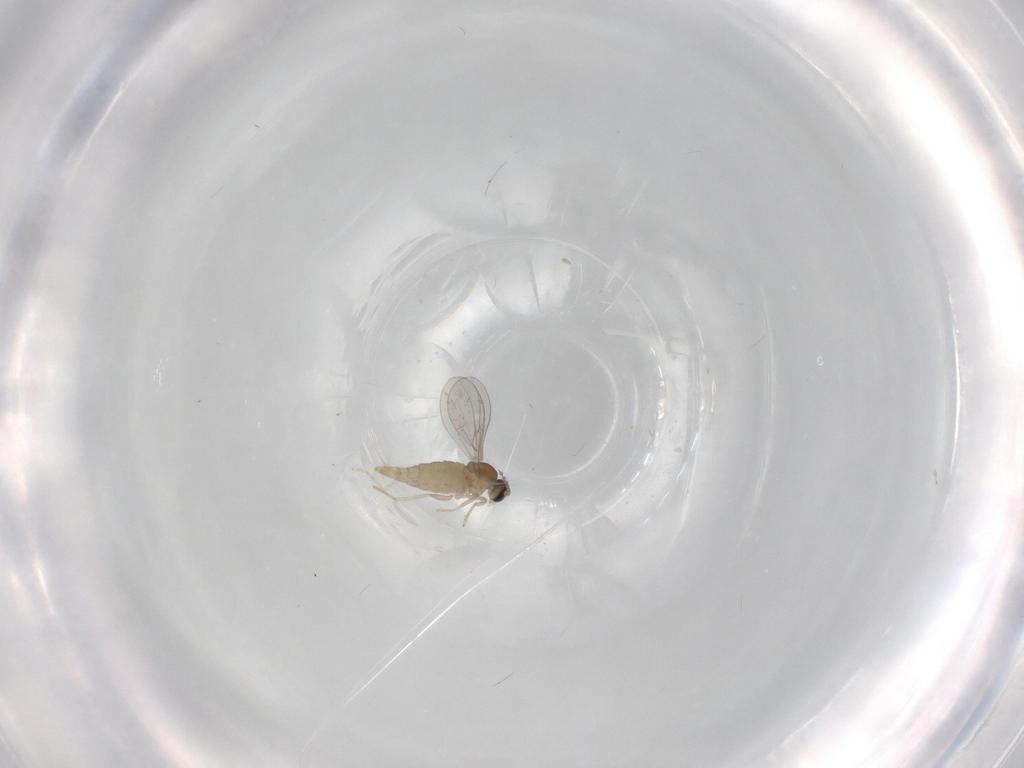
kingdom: Animalia
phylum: Arthropoda
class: Insecta
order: Diptera
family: Cecidomyiidae
